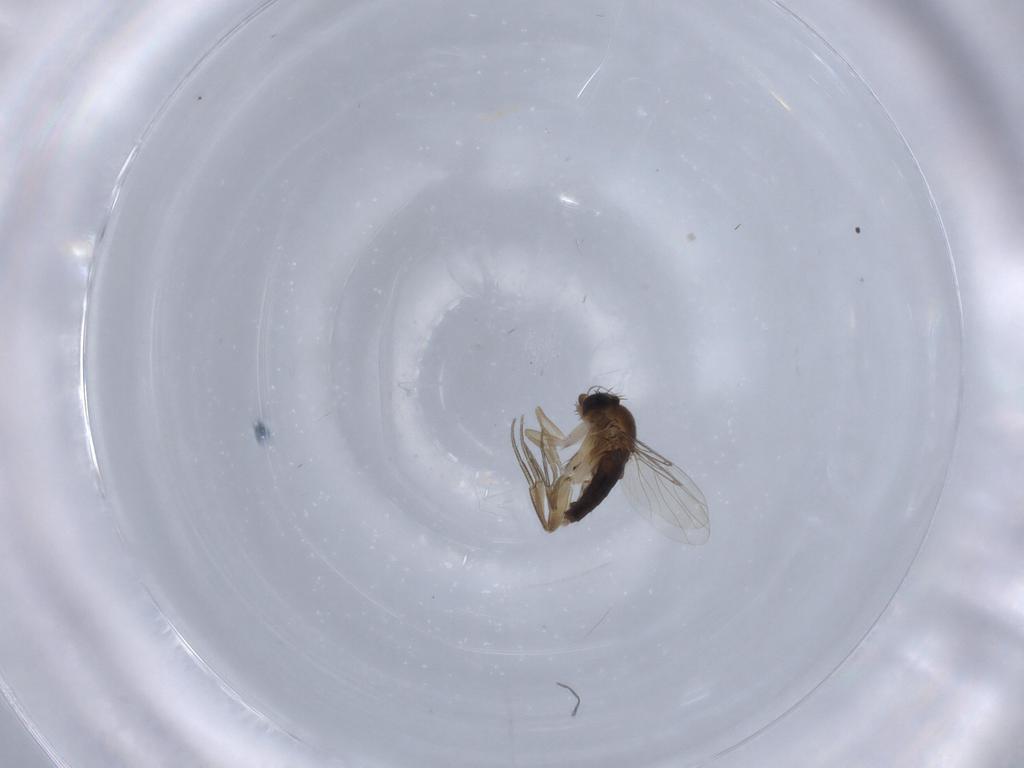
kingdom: Animalia
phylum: Arthropoda
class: Insecta
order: Diptera
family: Phoridae
